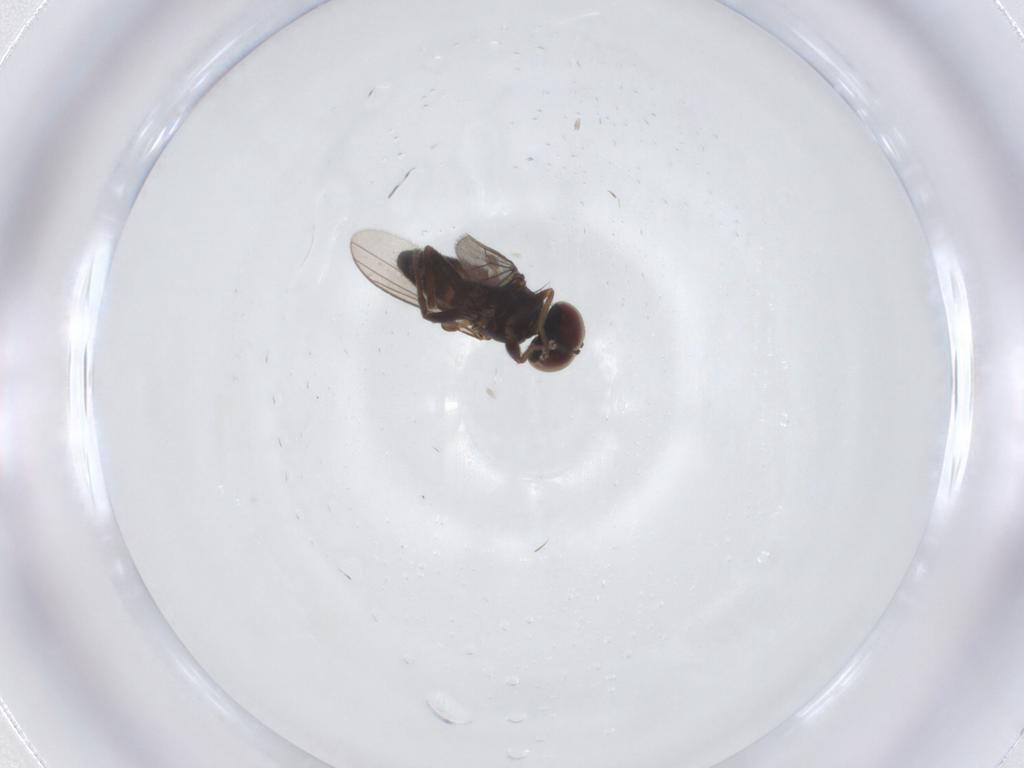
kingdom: Animalia
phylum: Arthropoda
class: Insecta
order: Diptera
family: Dolichopodidae
